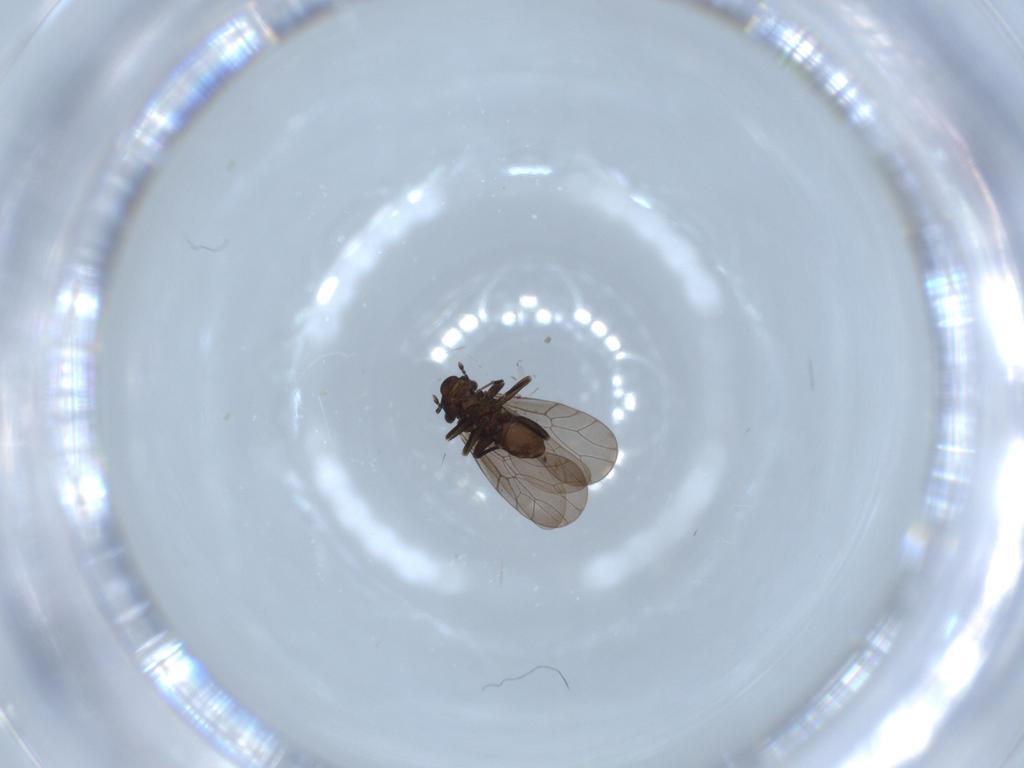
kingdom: Animalia
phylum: Arthropoda
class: Insecta
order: Psocodea
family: Lepidopsocidae
